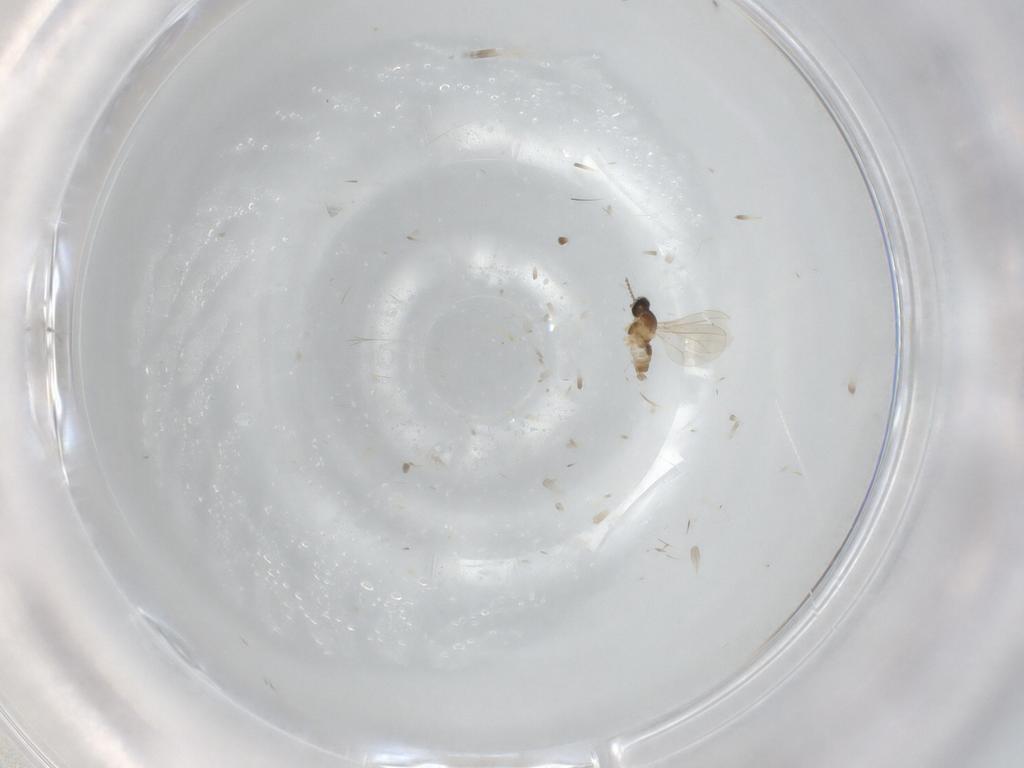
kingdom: Animalia
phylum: Arthropoda
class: Insecta
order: Diptera
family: Cecidomyiidae
